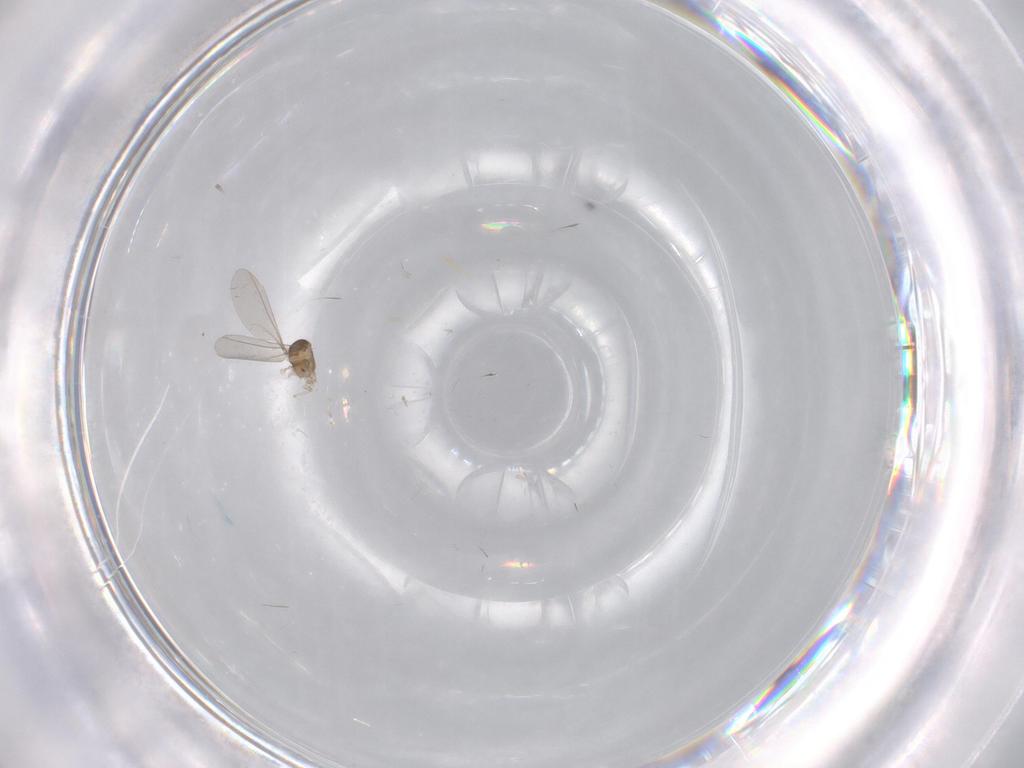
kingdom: Animalia
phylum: Arthropoda
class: Insecta
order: Diptera
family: Cecidomyiidae
